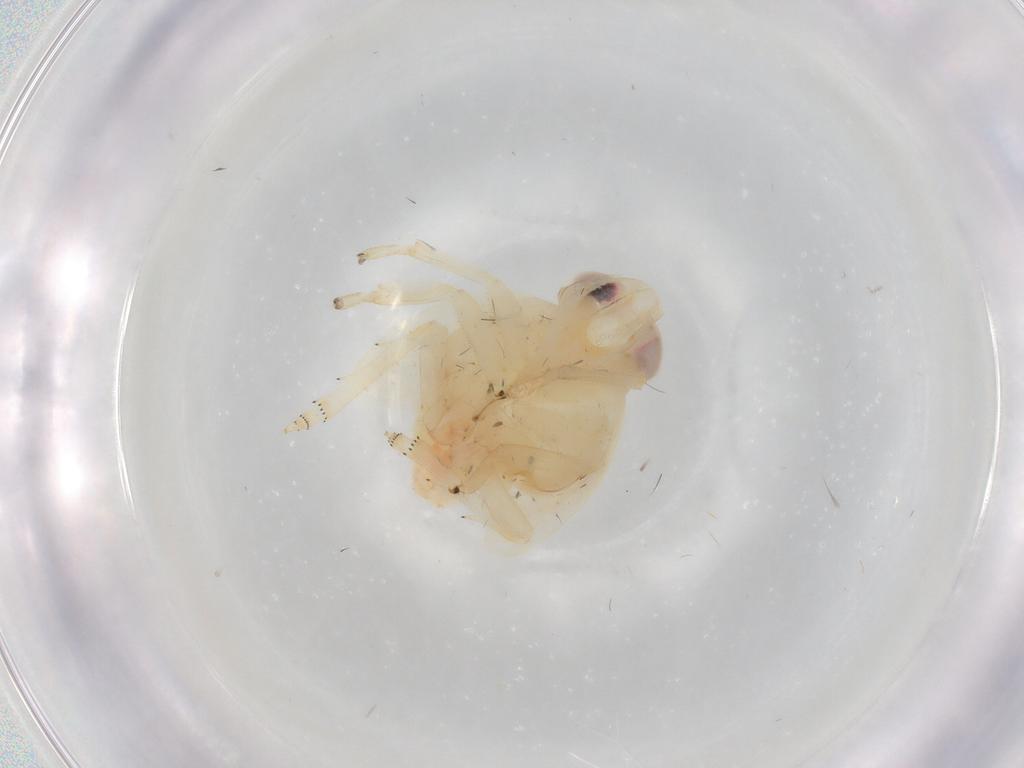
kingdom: Animalia
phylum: Arthropoda
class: Insecta
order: Hemiptera
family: Nogodinidae
